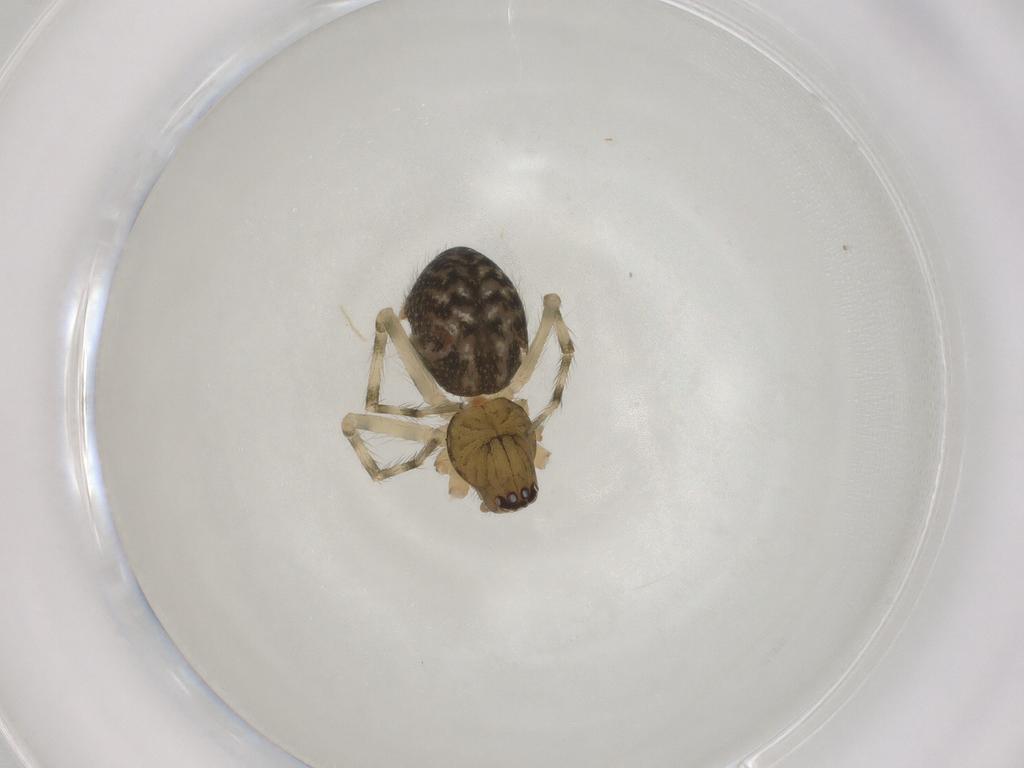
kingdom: Animalia
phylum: Arthropoda
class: Arachnida
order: Araneae
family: Dictynidae
